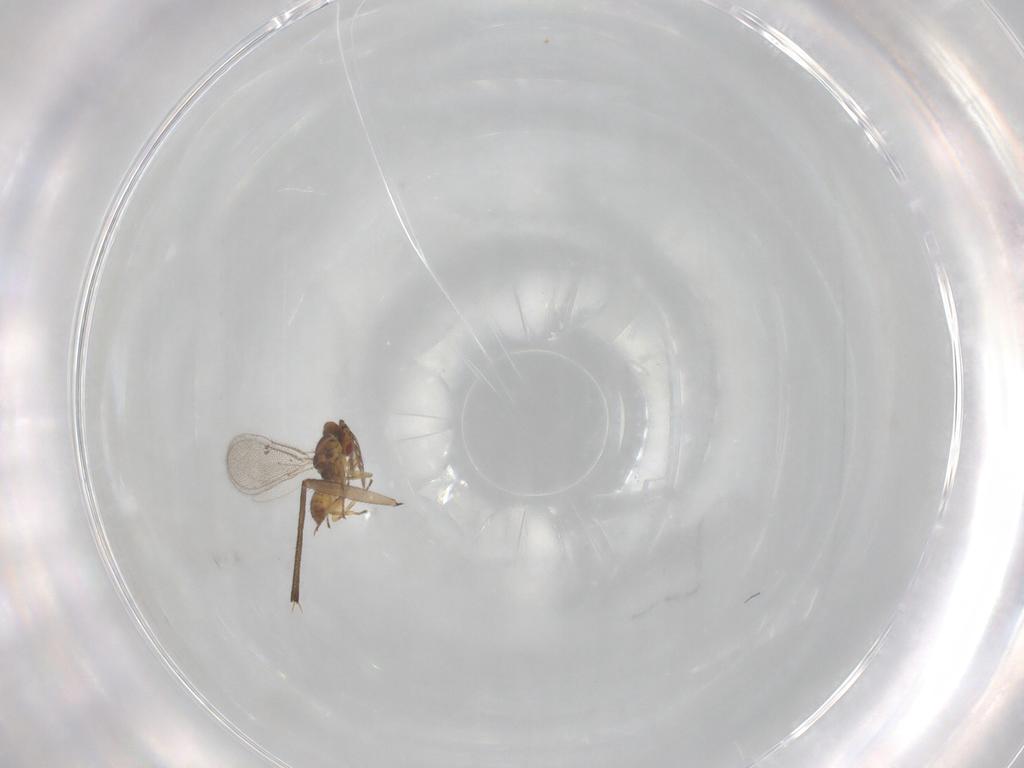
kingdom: Animalia
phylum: Arthropoda
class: Insecta
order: Hymenoptera
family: Eulophidae
